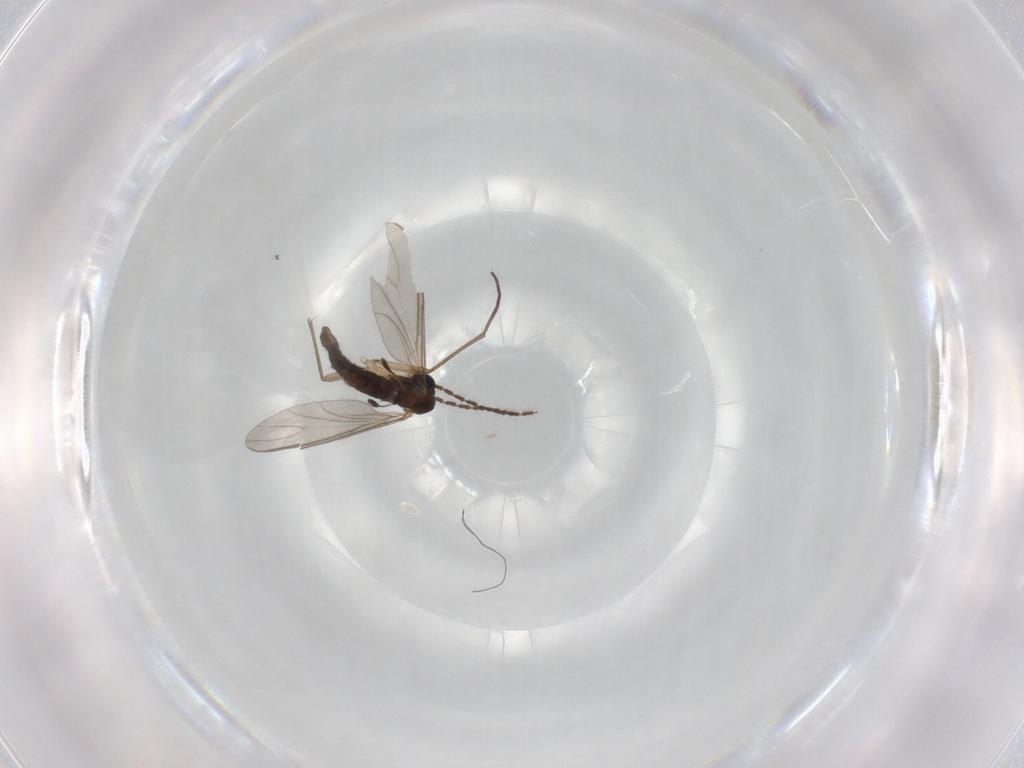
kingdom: Animalia
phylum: Arthropoda
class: Insecta
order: Diptera
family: Sciaridae
